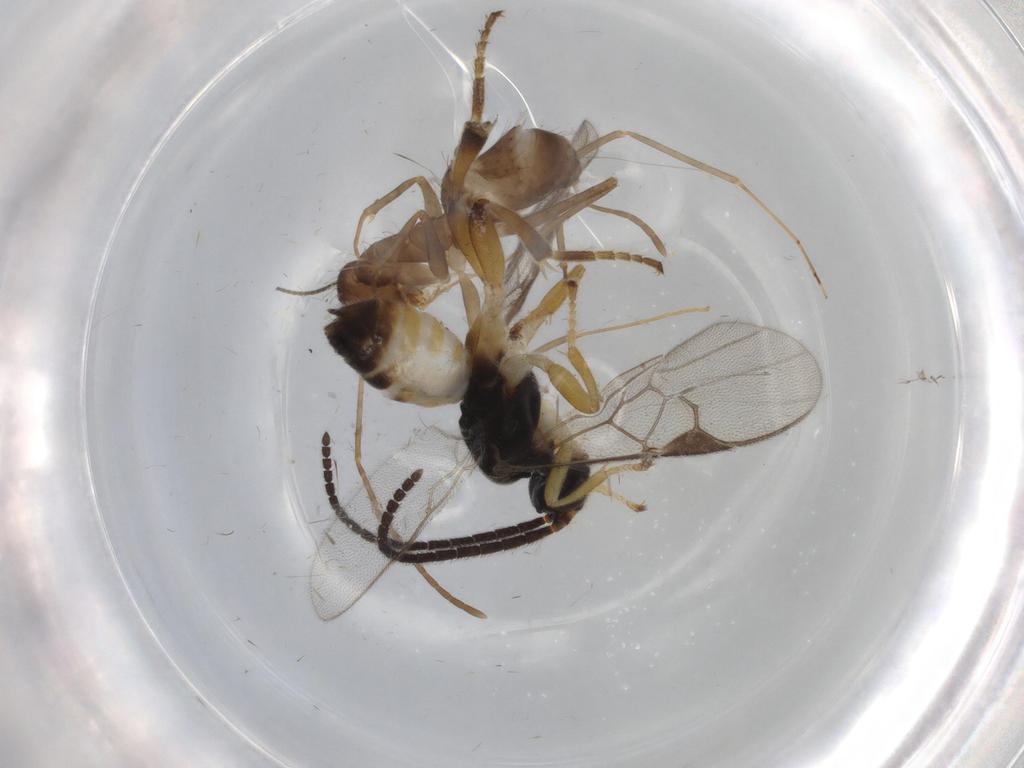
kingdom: Animalia
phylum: Arthropoda
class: Insecta
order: Hymenoptera
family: Formicidae
